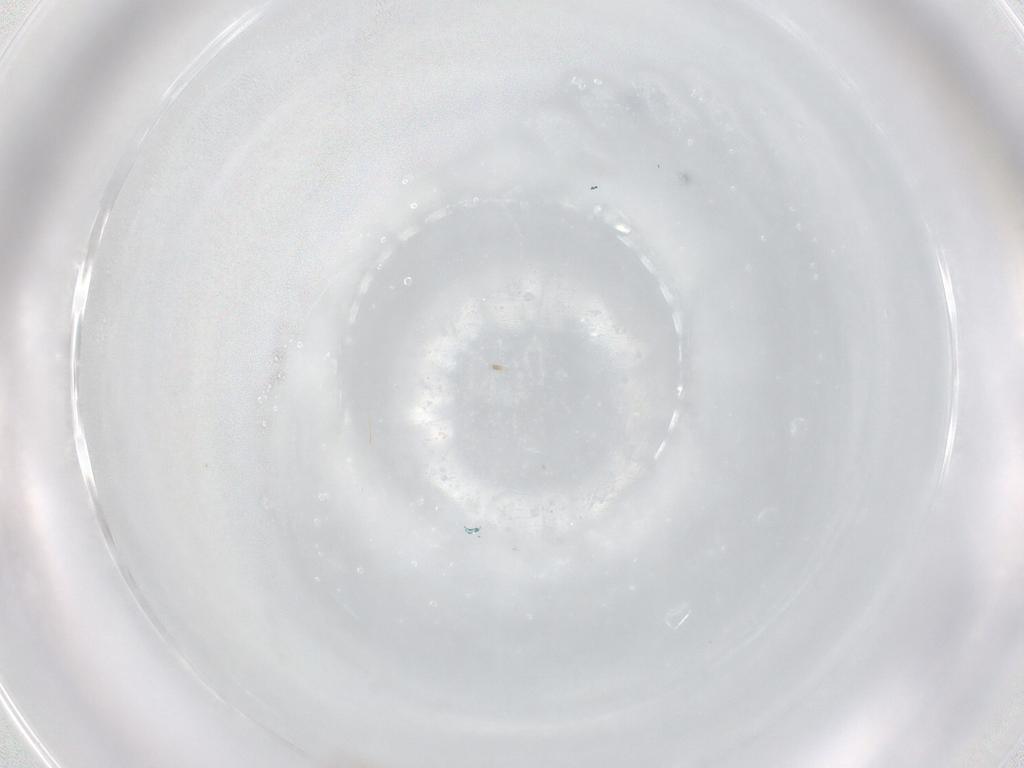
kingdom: Animalia
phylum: Arthropoda
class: Insecta
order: Diptera
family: Chironomidae
